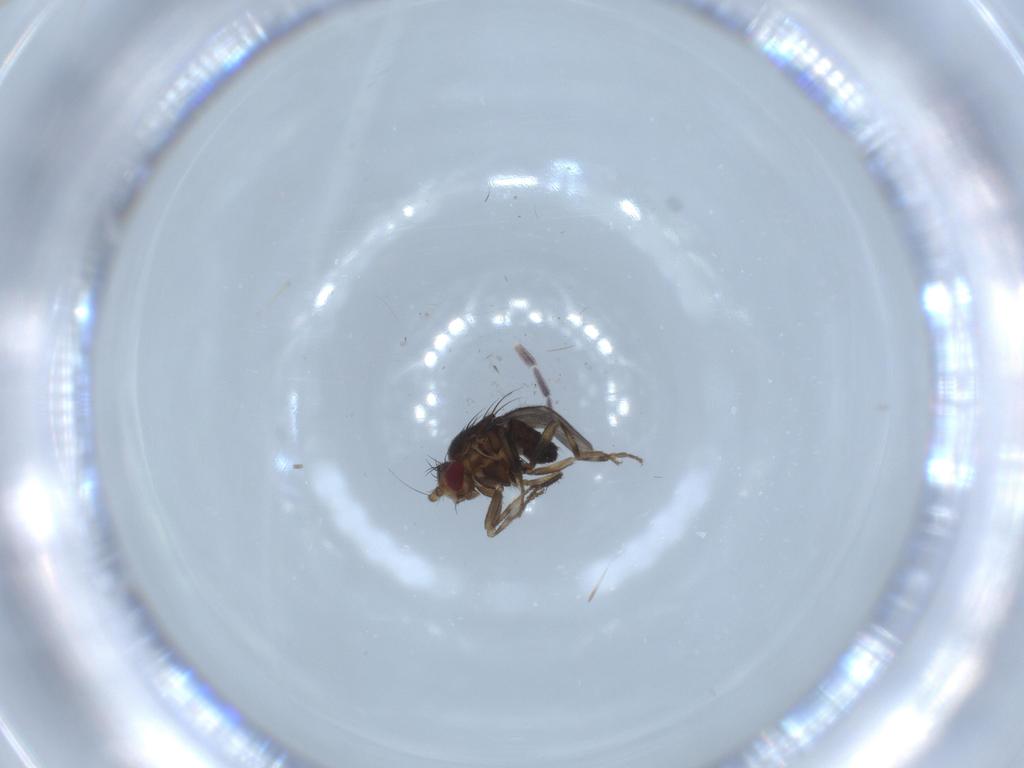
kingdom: Animalia
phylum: Arthropoda
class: Insecta
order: Diptera
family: Sphaeroceridae
